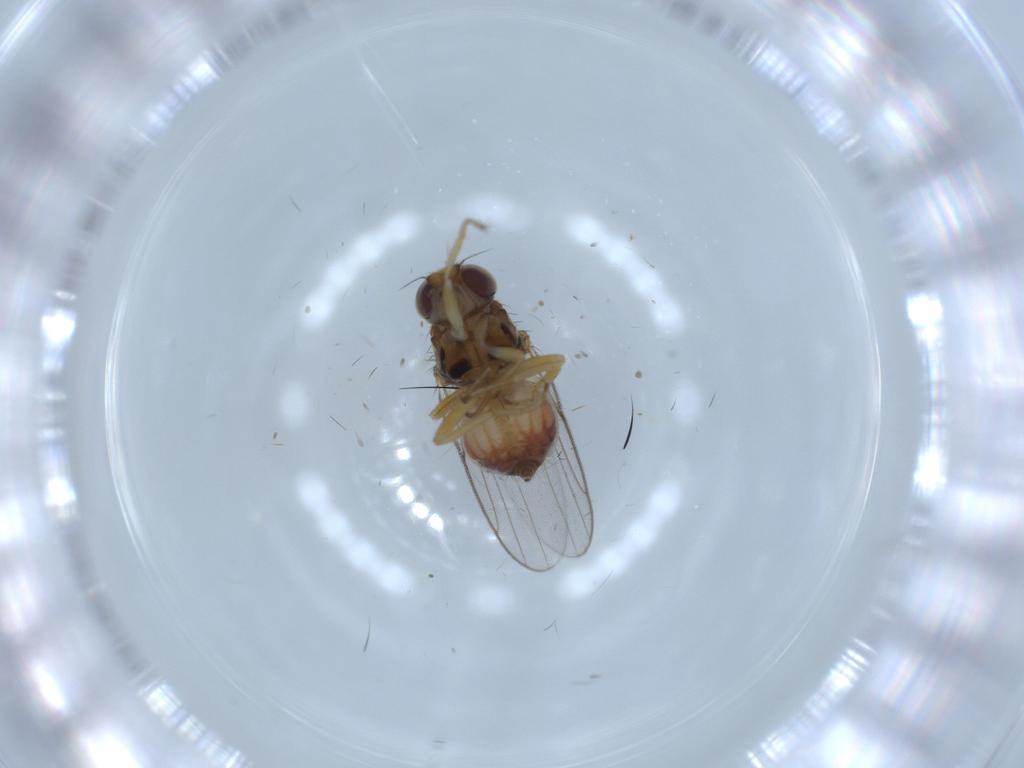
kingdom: Animalia
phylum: Arthropoda
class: Insecta
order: Diptera
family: Chloropidae
